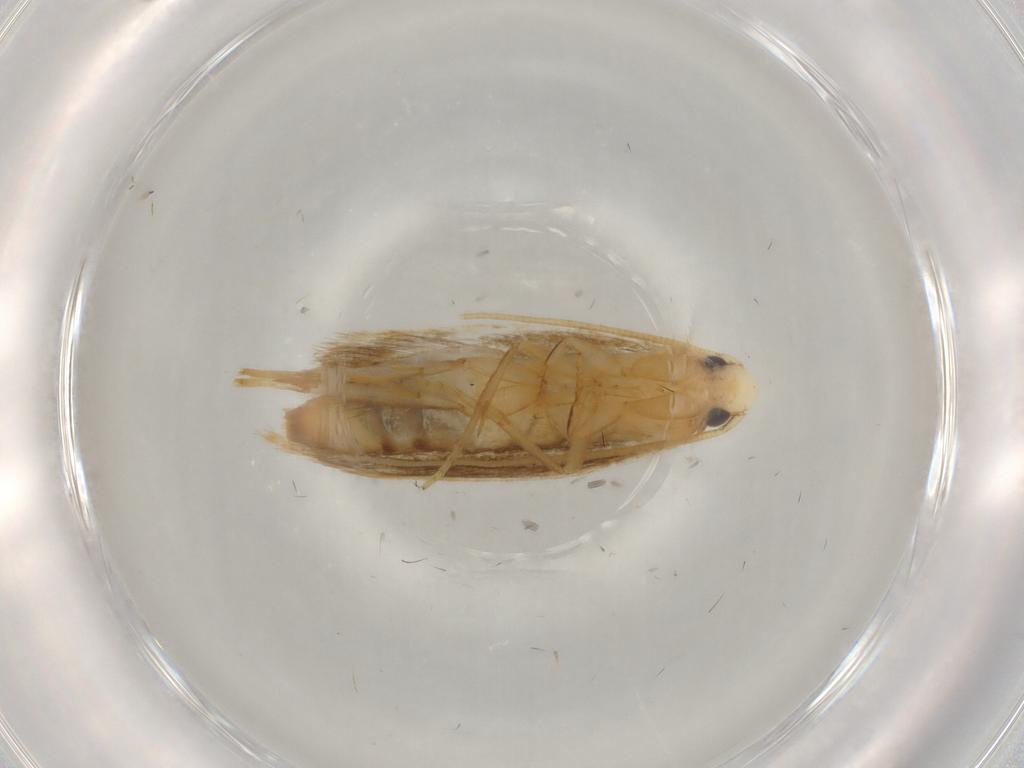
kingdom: Animalia
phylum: Arthropoda
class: Insecta
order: Lepidoptera
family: Tineidae
